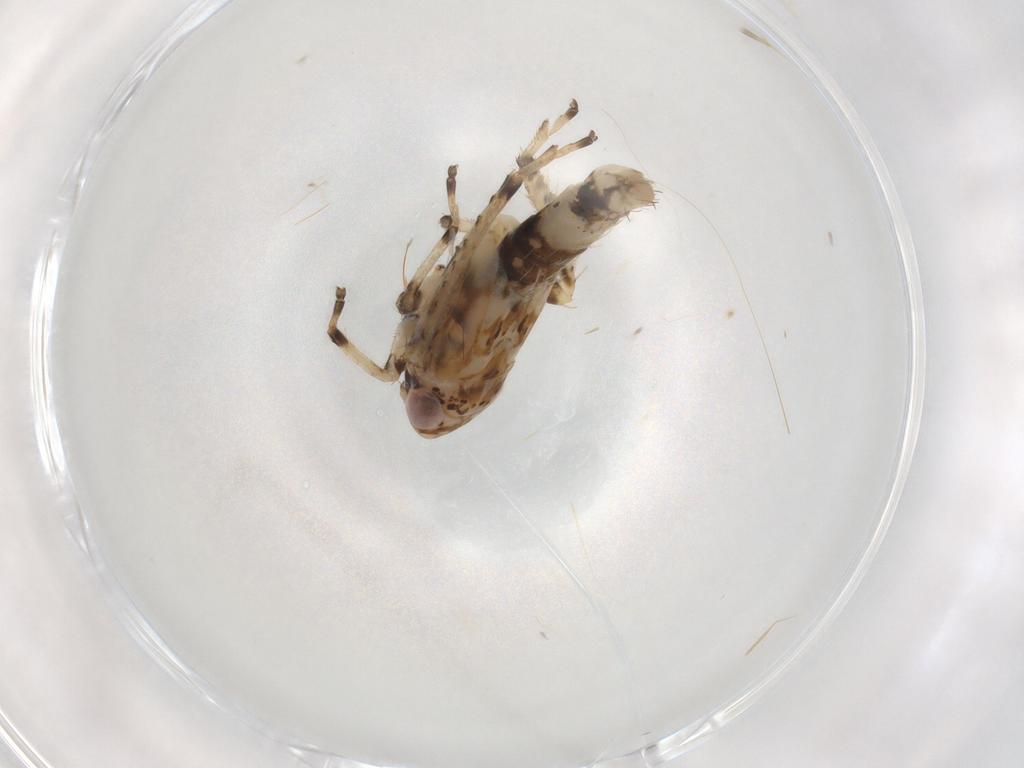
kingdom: Animalia
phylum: Arthropoda
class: Insecta
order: Hemiptera
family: Cicadellidae
